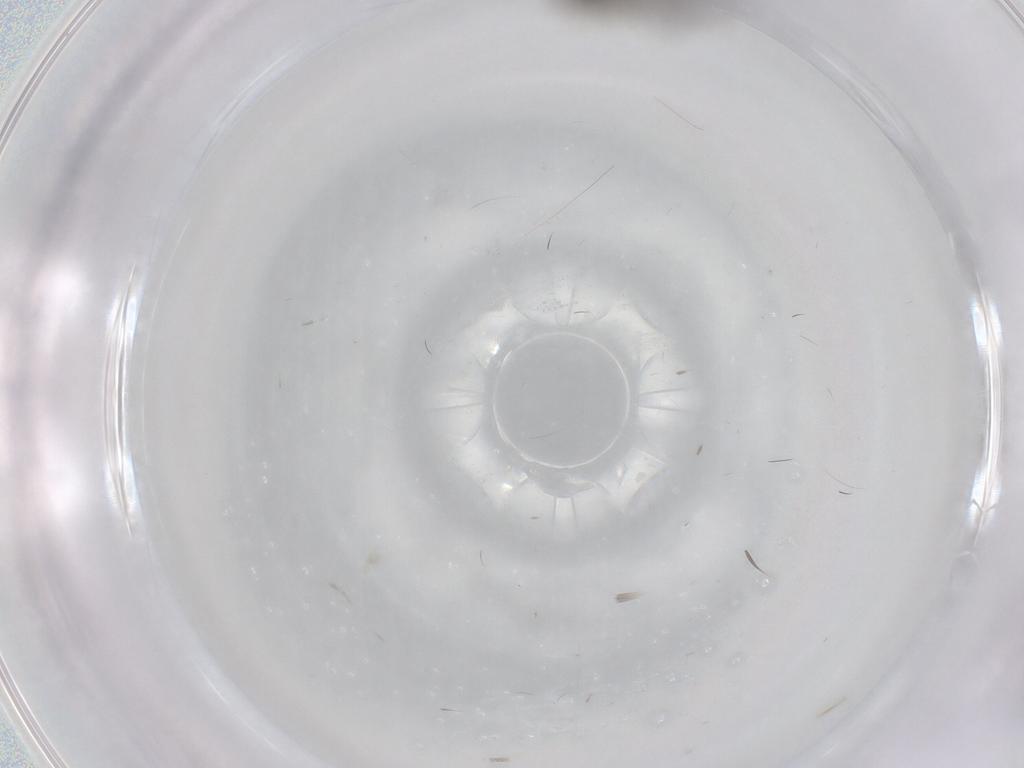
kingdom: Animalia
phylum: Arthropoda
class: Insecta
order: Diptera
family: Sciaridae
